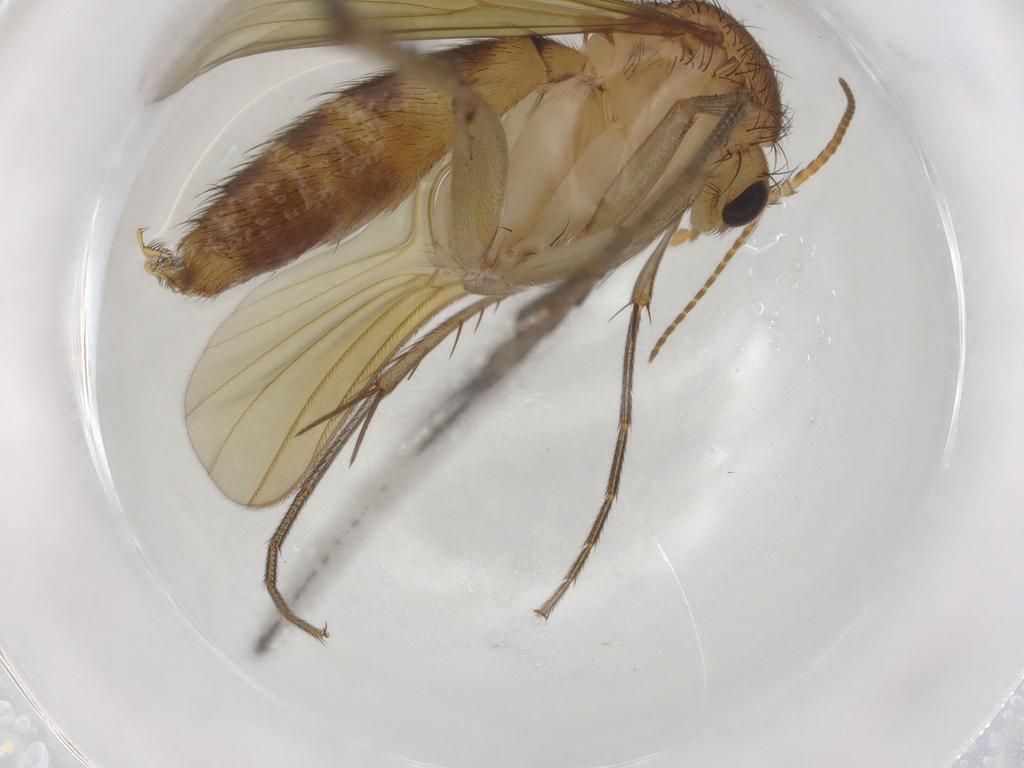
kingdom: Animalia
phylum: Arthropoda
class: Insecta
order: Diptera
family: Mycetophilidae
